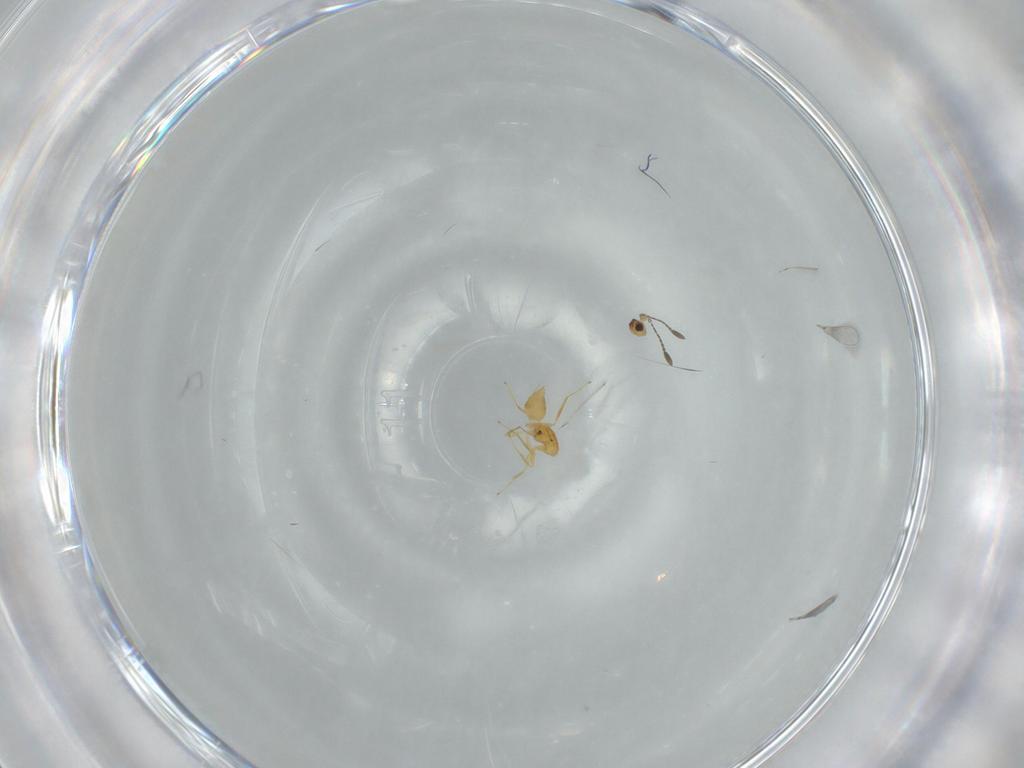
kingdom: Animalia
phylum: Arthropoda
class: Insecta
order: Hymenoptera
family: Mymaridae
